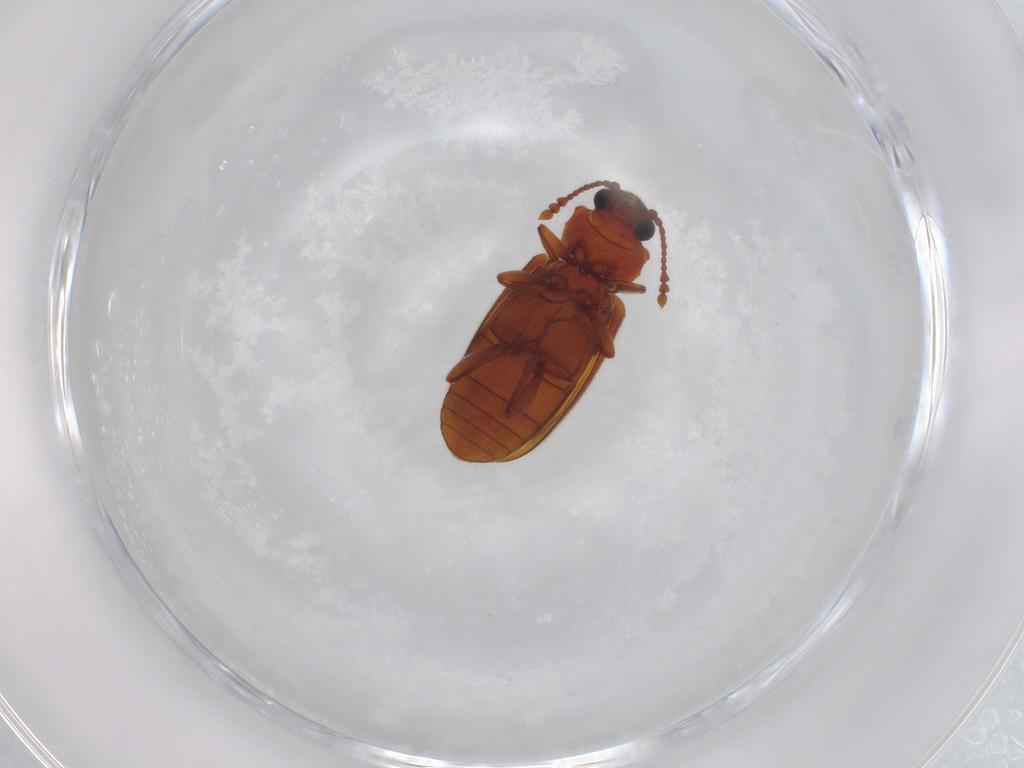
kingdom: Animalia
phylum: Arthropoda
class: Insecta
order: Coleoptera
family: Cryptophagidae
